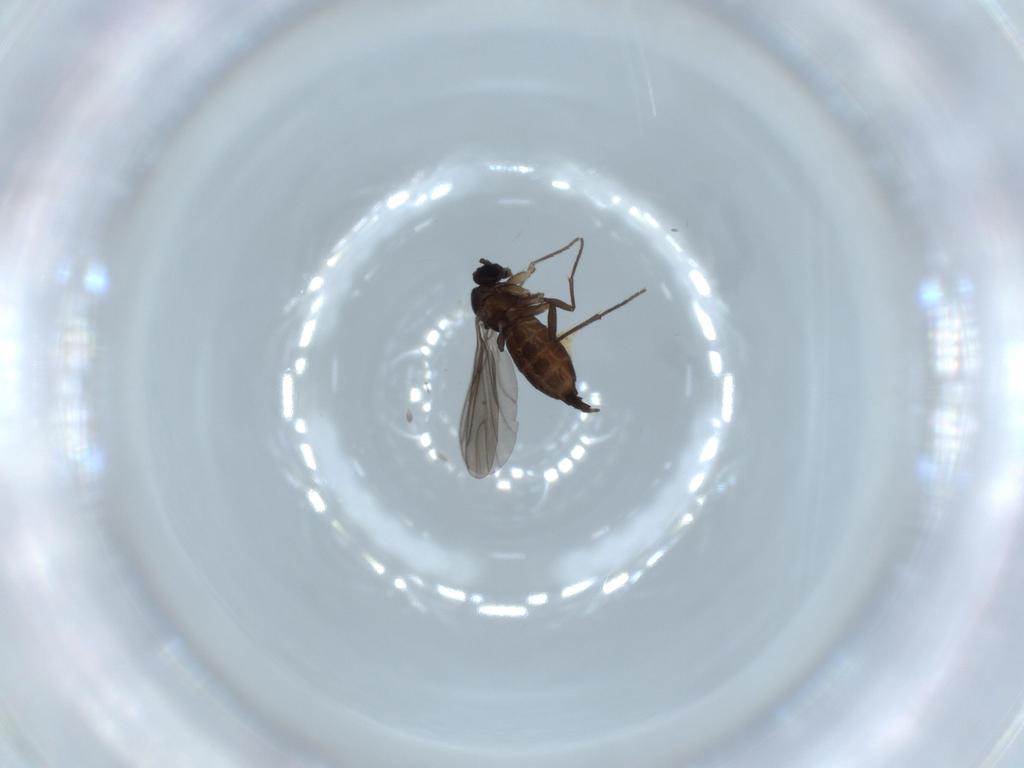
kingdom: Animalia
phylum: Arthropoda
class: Insecta
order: Diptera
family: Sciaridae
